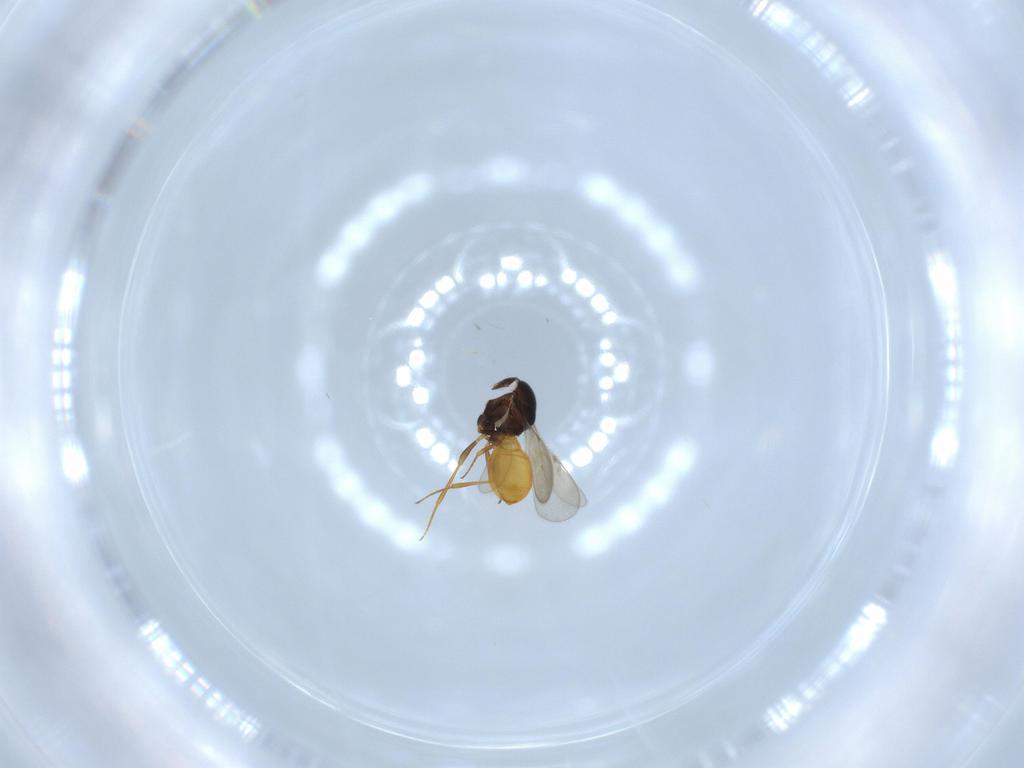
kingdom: Animalia
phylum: Arthropoda
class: Insecta
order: Hymenoptera
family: Scelionidae
